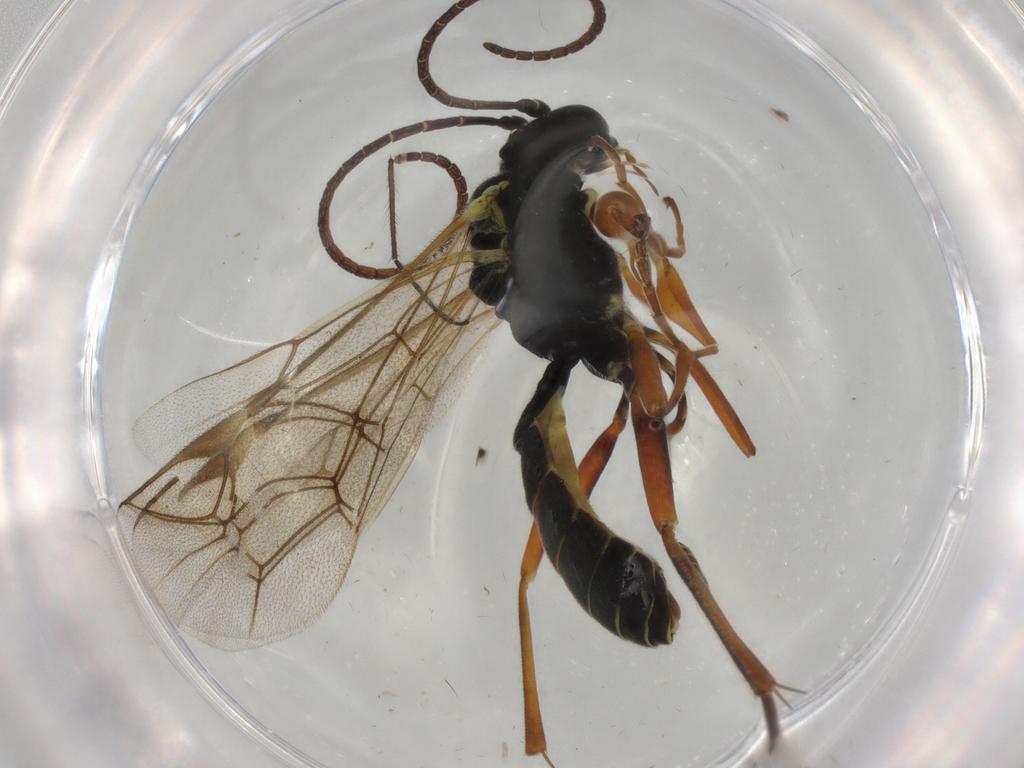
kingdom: Animalia
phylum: Arthropoda
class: Insecta
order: Hymenoptera
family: Ichneumonidae
